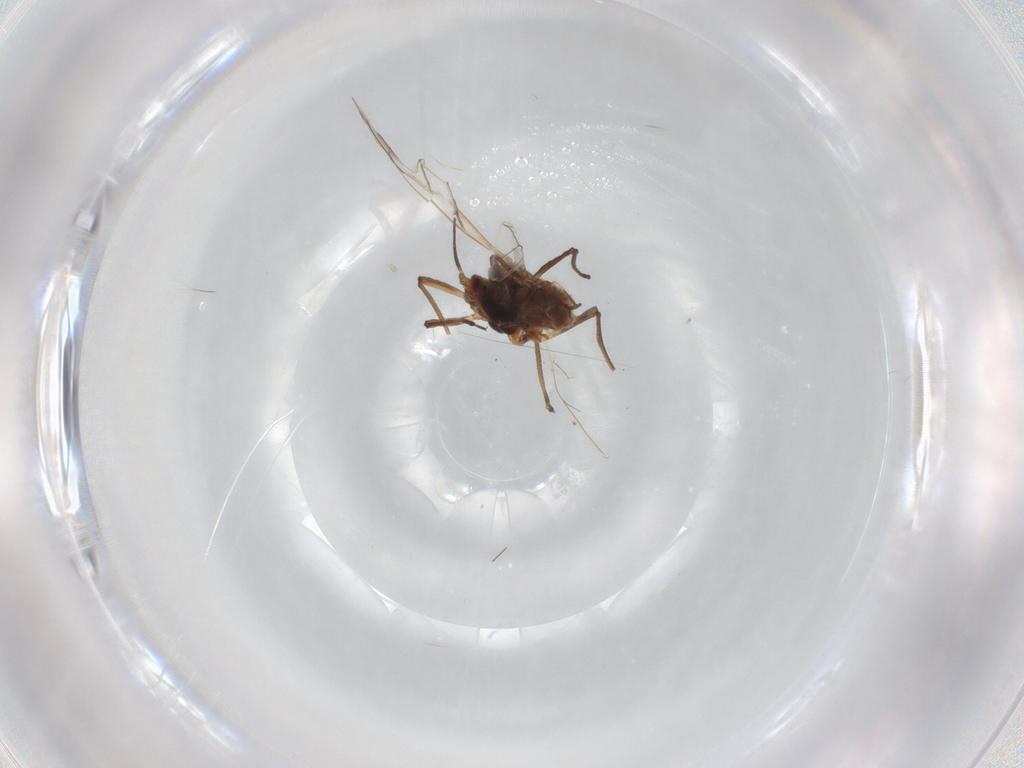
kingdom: Animalia
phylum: Arthropoda
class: Insecta
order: Hemiptera
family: Aphididae
